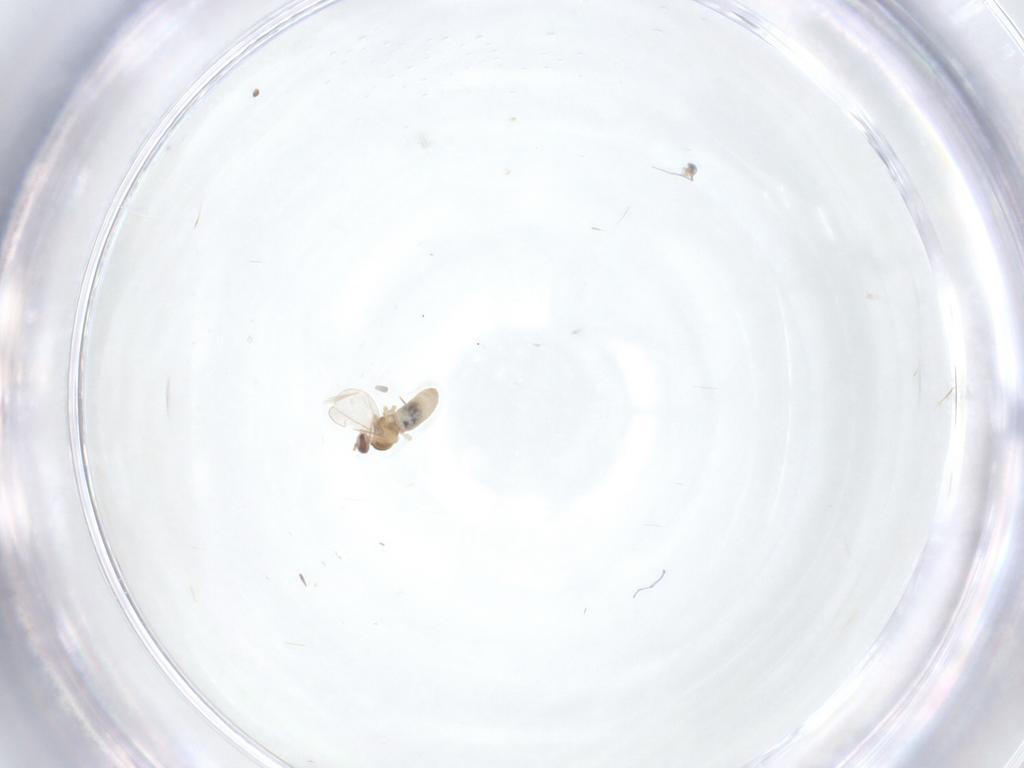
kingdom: Animalia
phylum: Arthropoda
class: Insecta
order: Diptera
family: Cecidomyiidae
